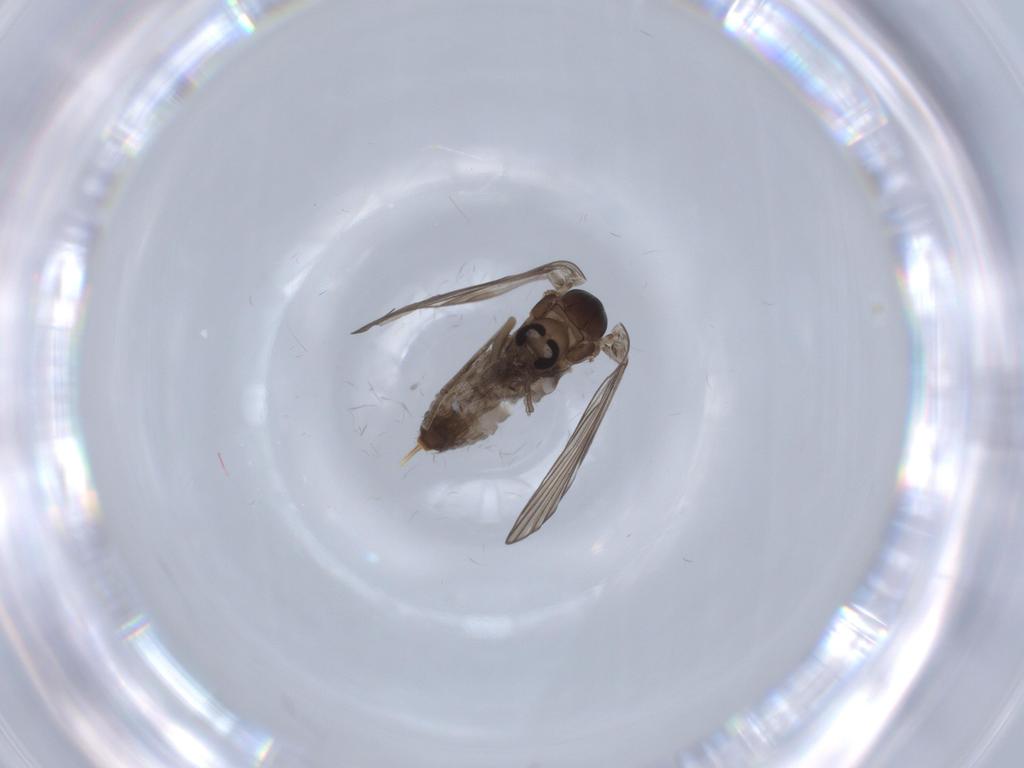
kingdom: Animalia
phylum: Arthropoda
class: Insecta
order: Diptera
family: Psychodidae
